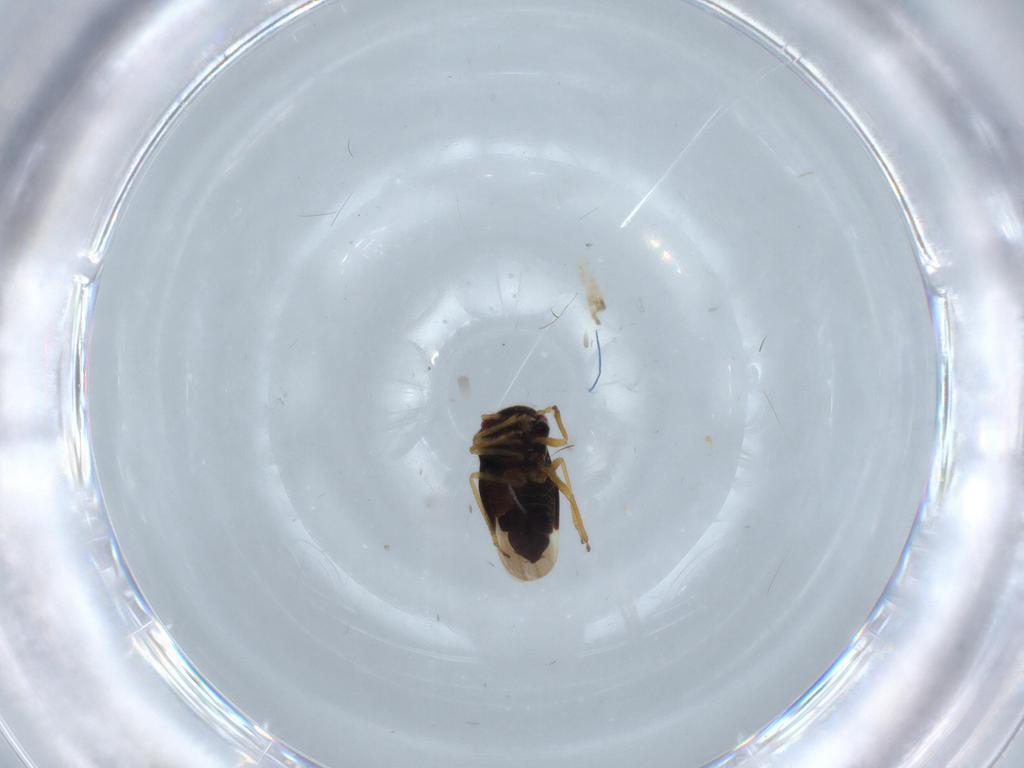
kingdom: Animalia
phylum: Arthropoda
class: Insecta
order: Hemiptera
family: Schizopteridae
